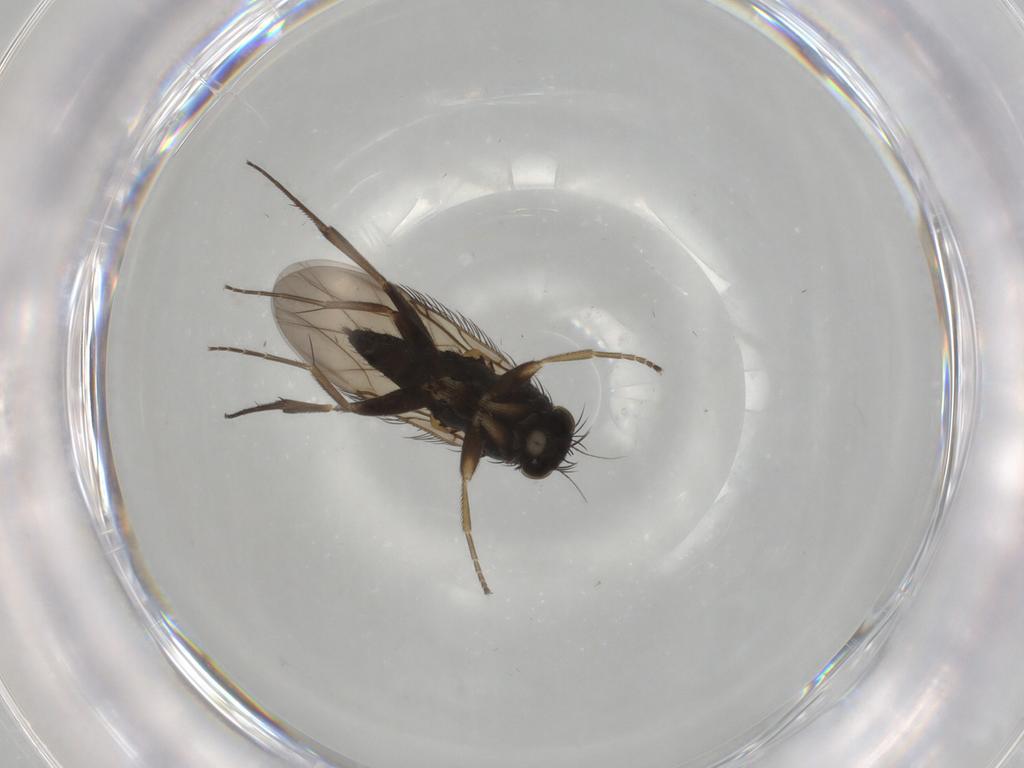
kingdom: Animalia
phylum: Arthropoda
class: Insecta
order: Diptera
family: Phoridae
